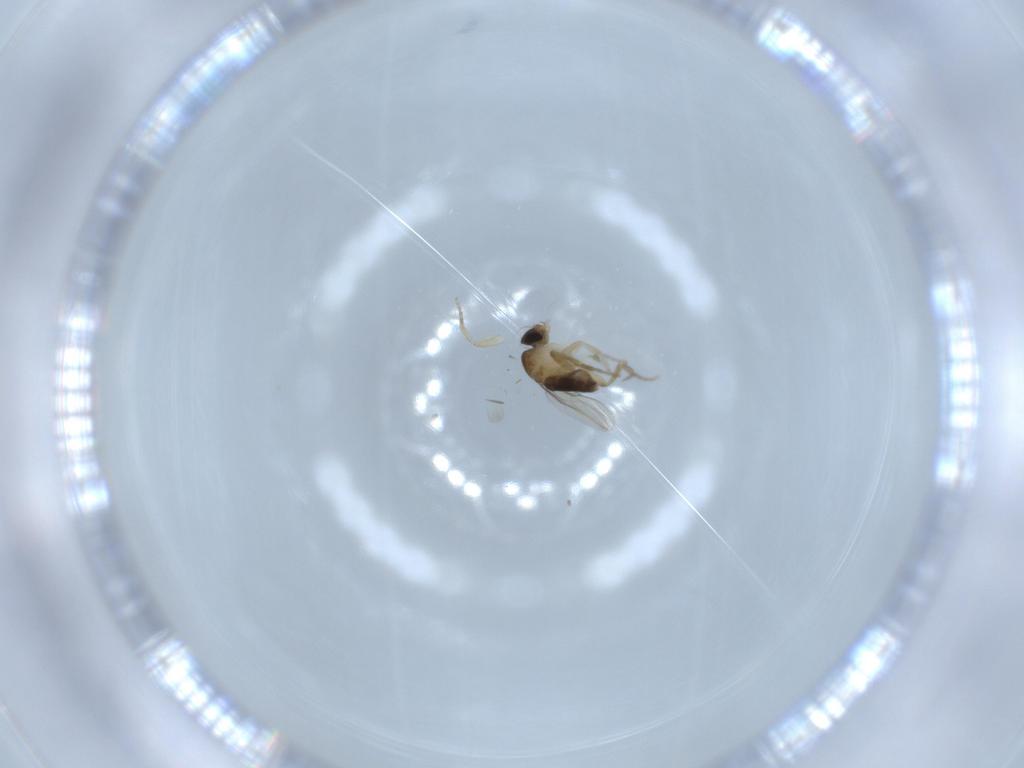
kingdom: Animalia
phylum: Arthropoda
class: Insecta
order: Diptera
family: Phoridae
